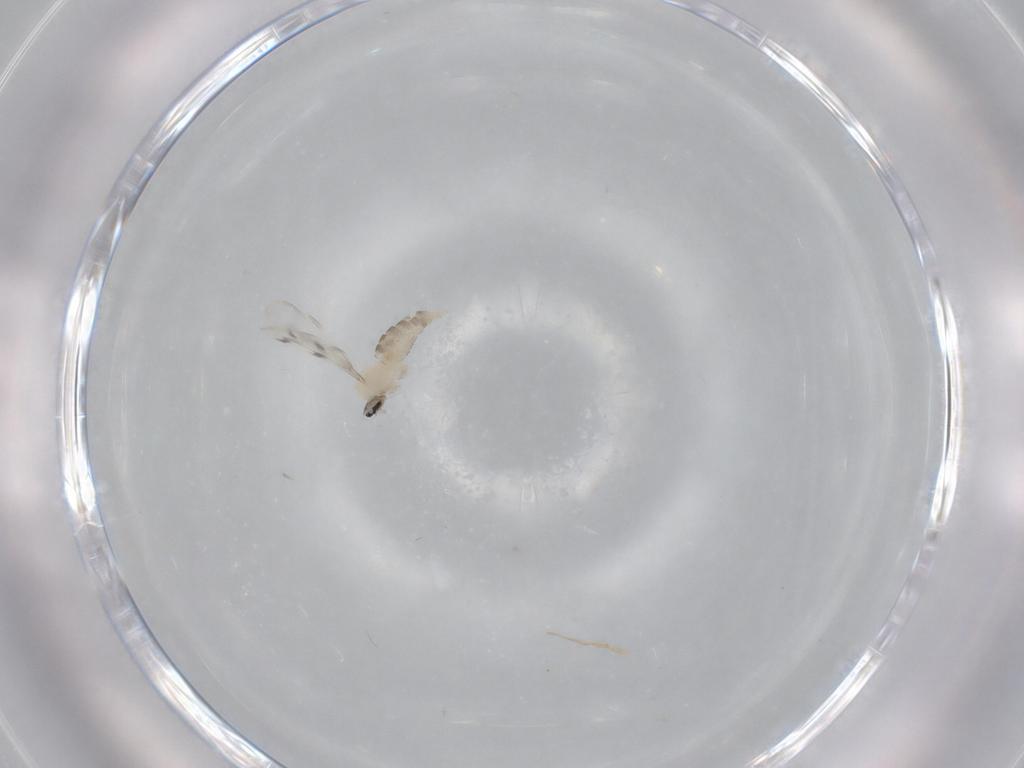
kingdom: Animalia
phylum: Arthropoda
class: Insecta
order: Diptera
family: Cecidomyiidae
